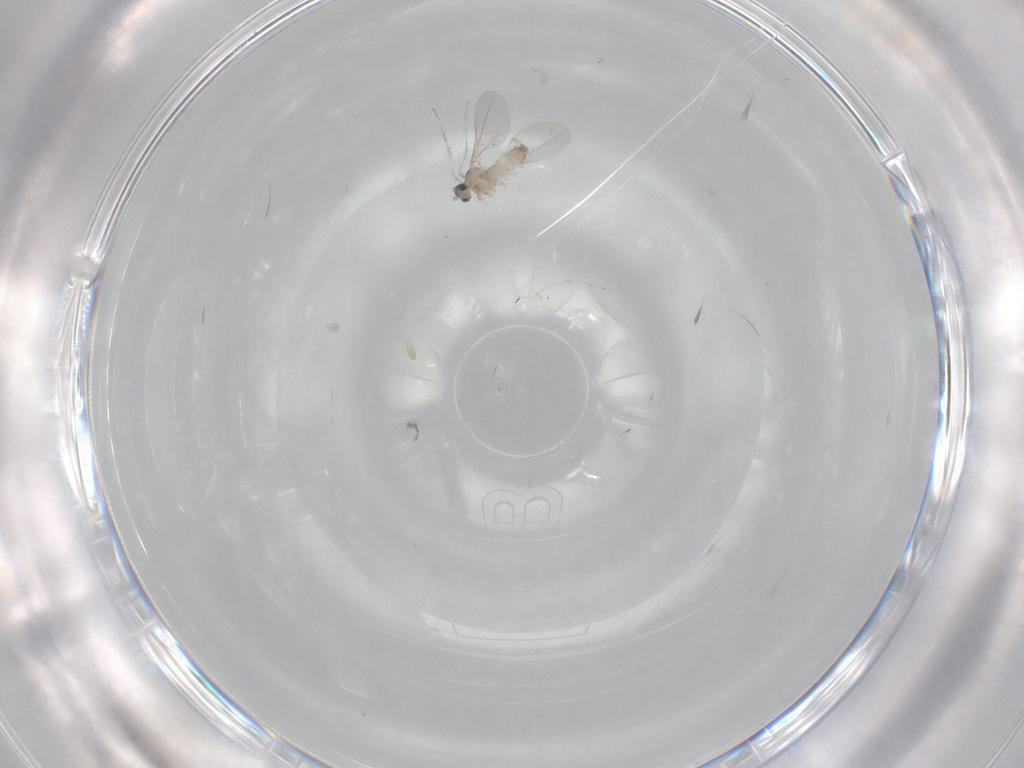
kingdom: Animalia
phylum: Arthropoda
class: Insecta
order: Diptera
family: Cecidomyiidae
